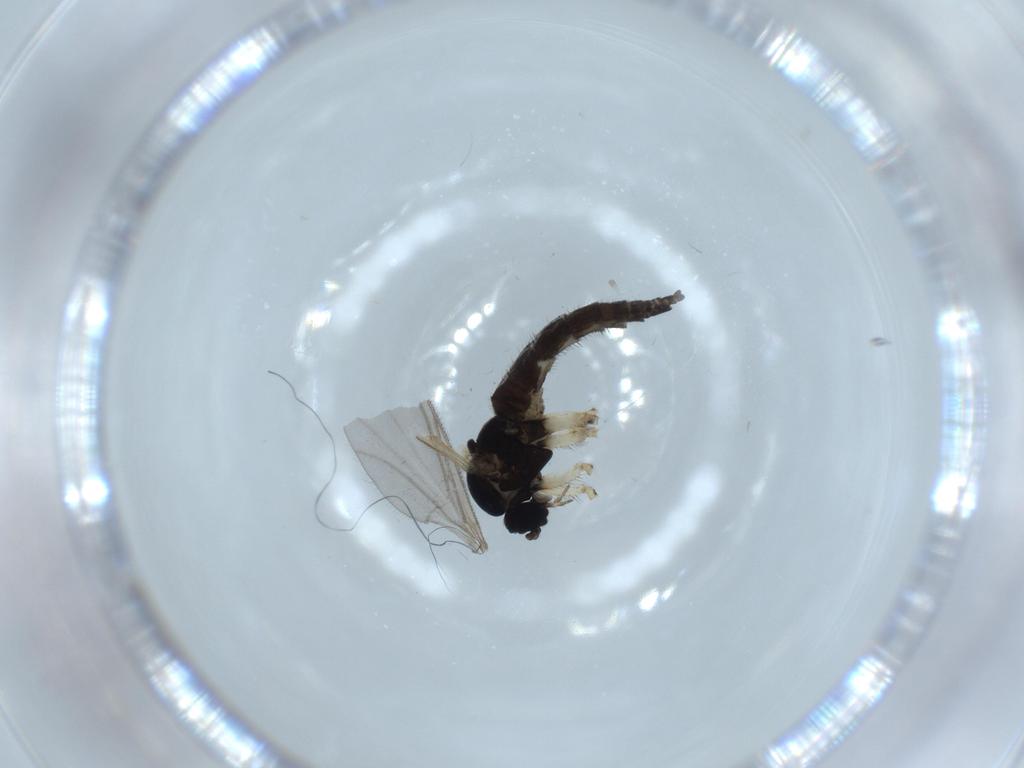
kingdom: Animalia
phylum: Arthropoda
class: Insecta
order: Diptera
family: Sciaridae
